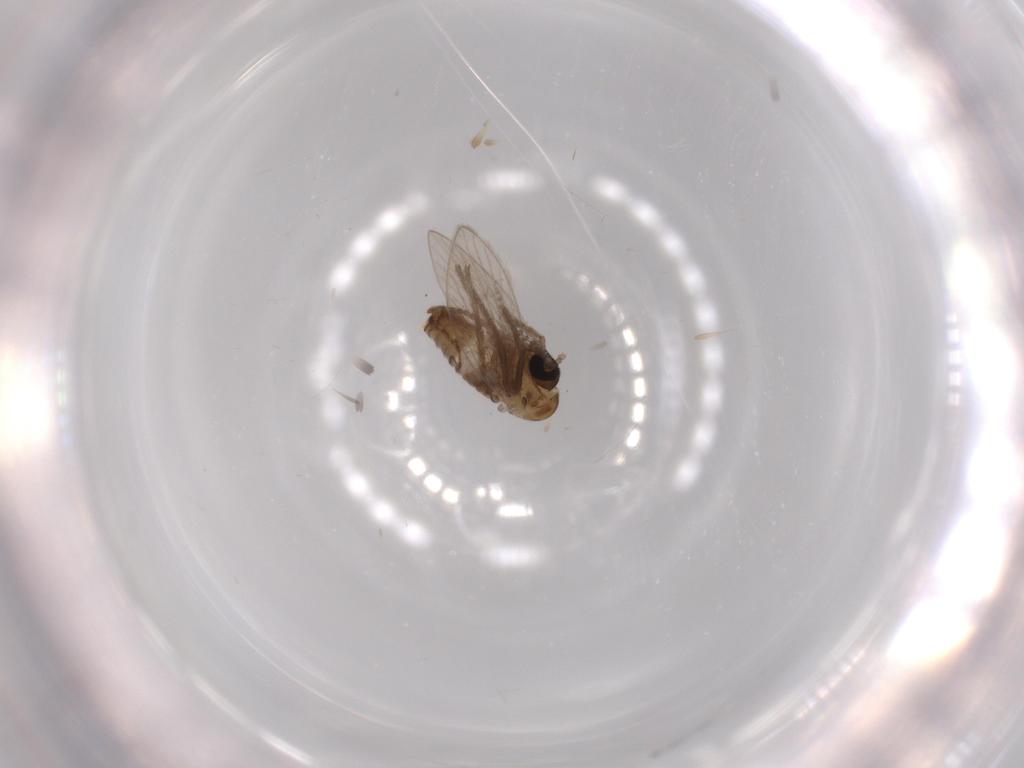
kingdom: Animalia
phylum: Arthropoda
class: Insecta
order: Diptera
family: Psychodidae
